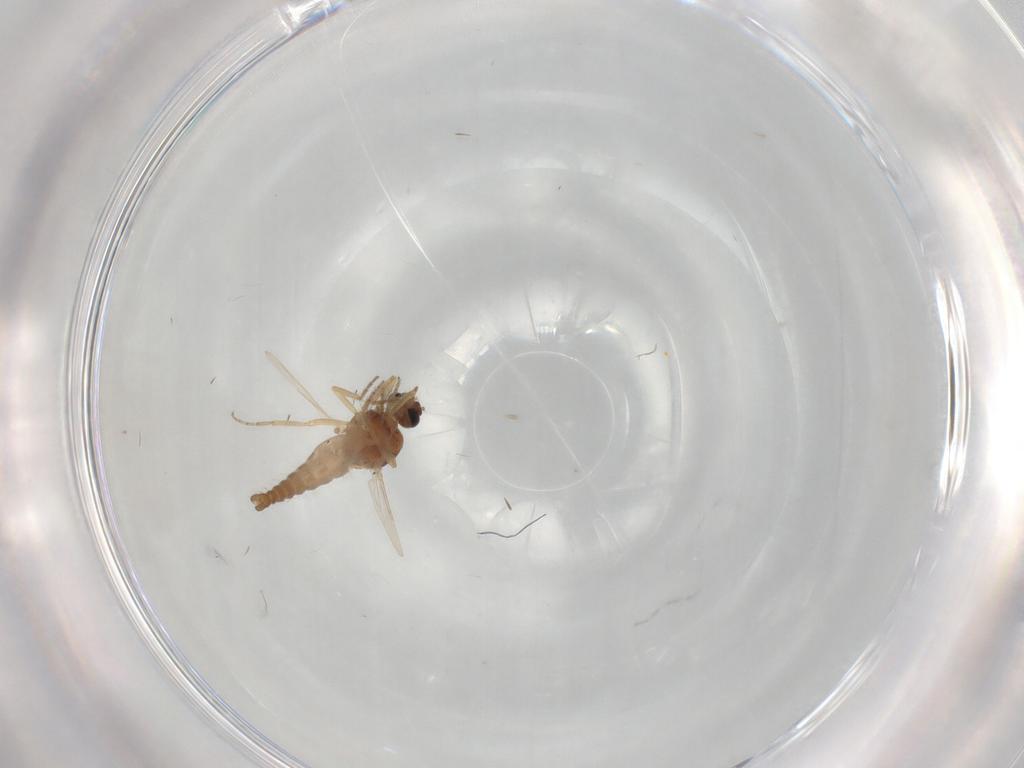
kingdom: Animalia
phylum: Arthropoda
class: Insecta
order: Diptera
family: Ceratopogonidae
